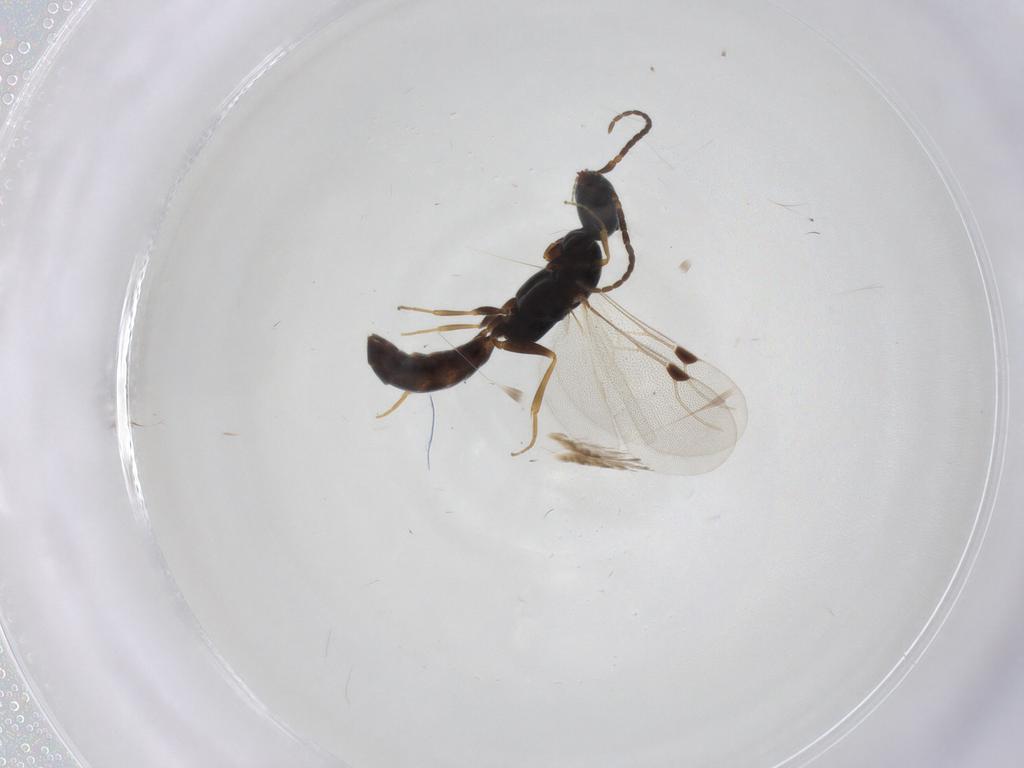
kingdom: Animalia
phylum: Arthropoda
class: Insecta
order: Hymenoptera
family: Bethylidae
